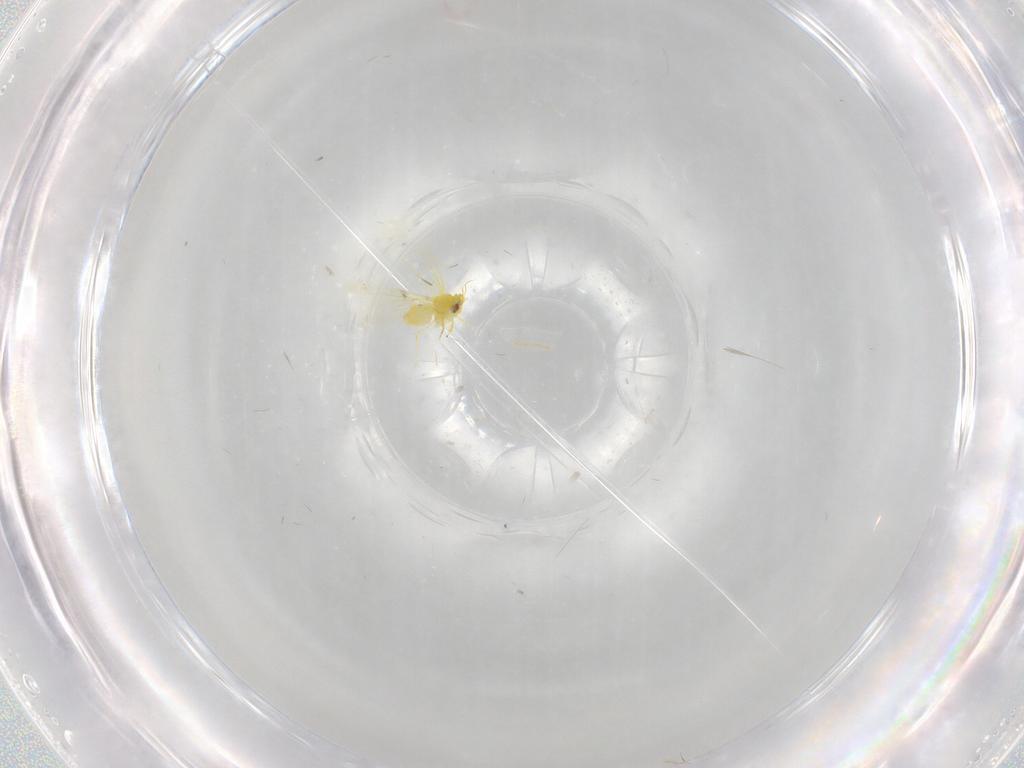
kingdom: Animalia
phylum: Arthropoda
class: Insecta
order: Hemiptera
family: Aleyrodidae
